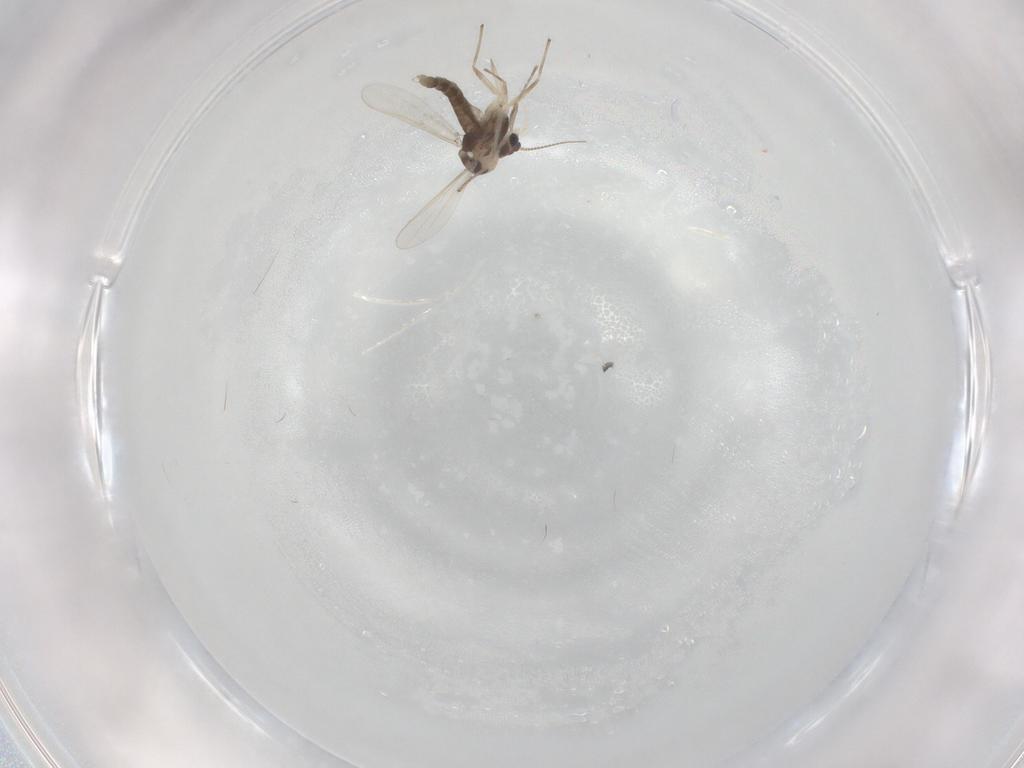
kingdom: Animalia
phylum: Arthropoda
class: Insecta
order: Diptera
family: Chironomidae
